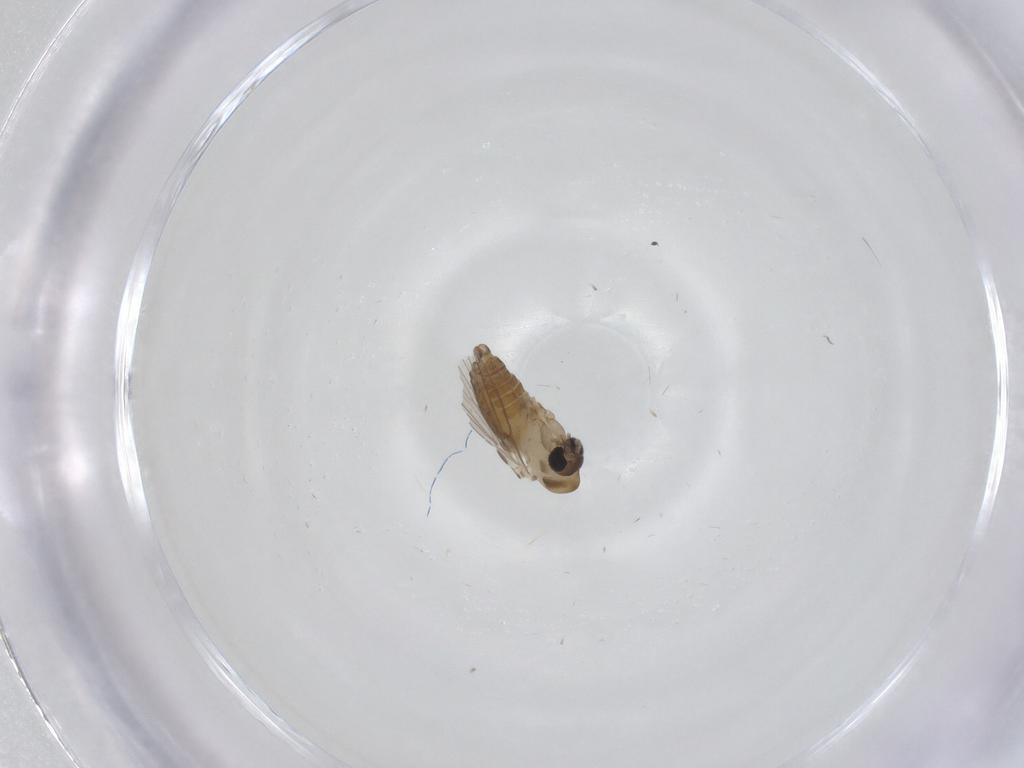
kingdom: Animalia
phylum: Arthropoda
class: Insecta
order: Diptera
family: Psychodidae
